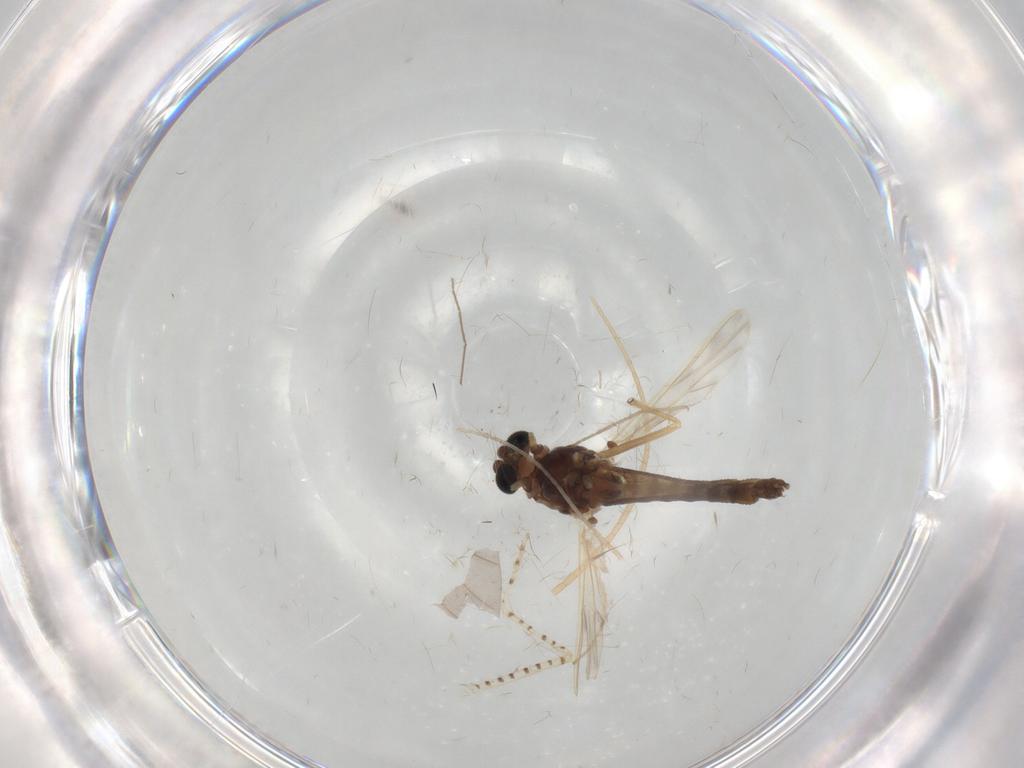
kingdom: Animalia
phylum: Arthropoda
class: Insecta
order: Diptera
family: Chironomidae
